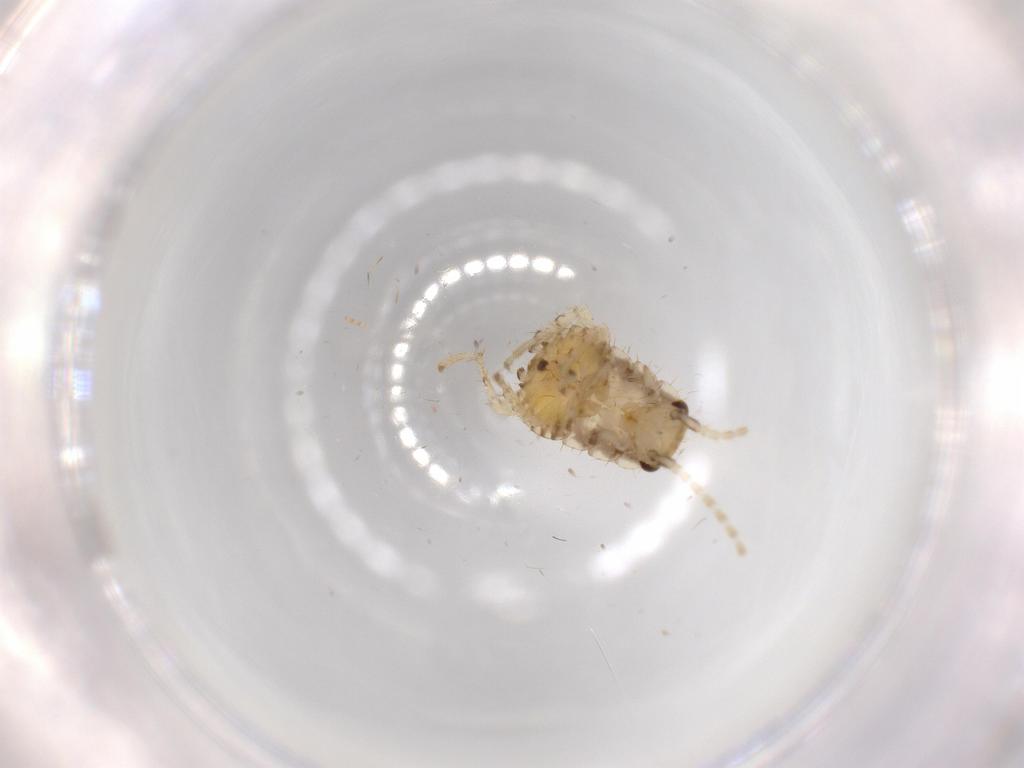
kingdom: Animalia
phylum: Arthropoda
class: Insecta
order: Blattodea
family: Ectobiidae
